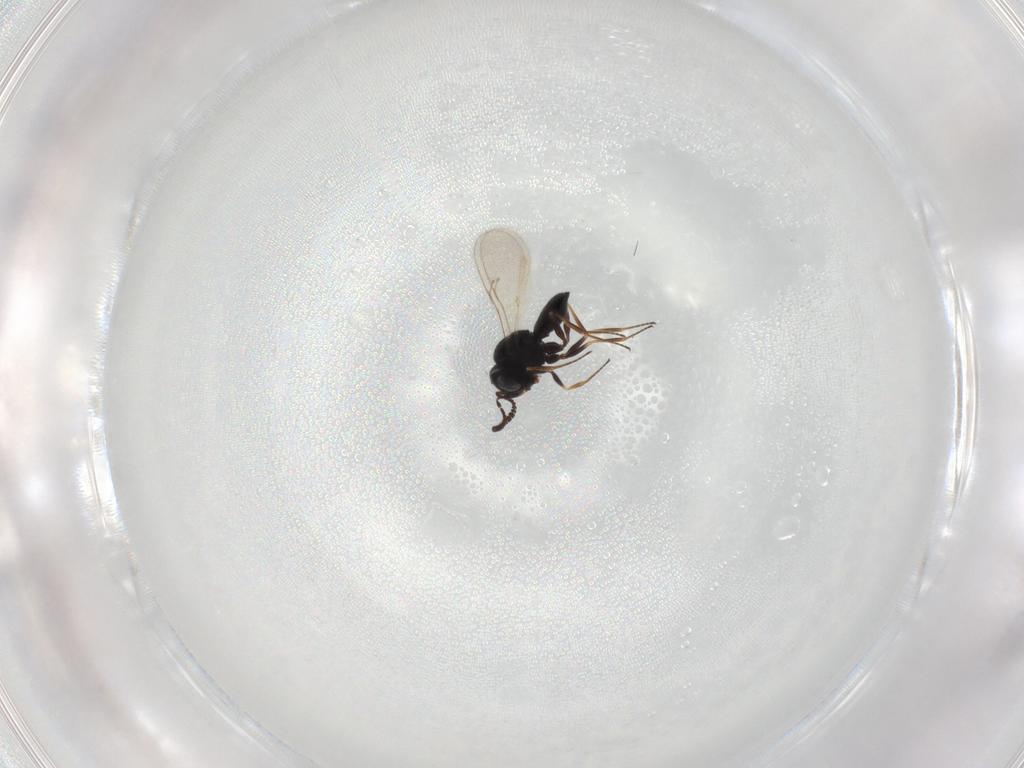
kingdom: Animalia
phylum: Arthropoda
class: Insecta
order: Hymenoptera
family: Braconidae
